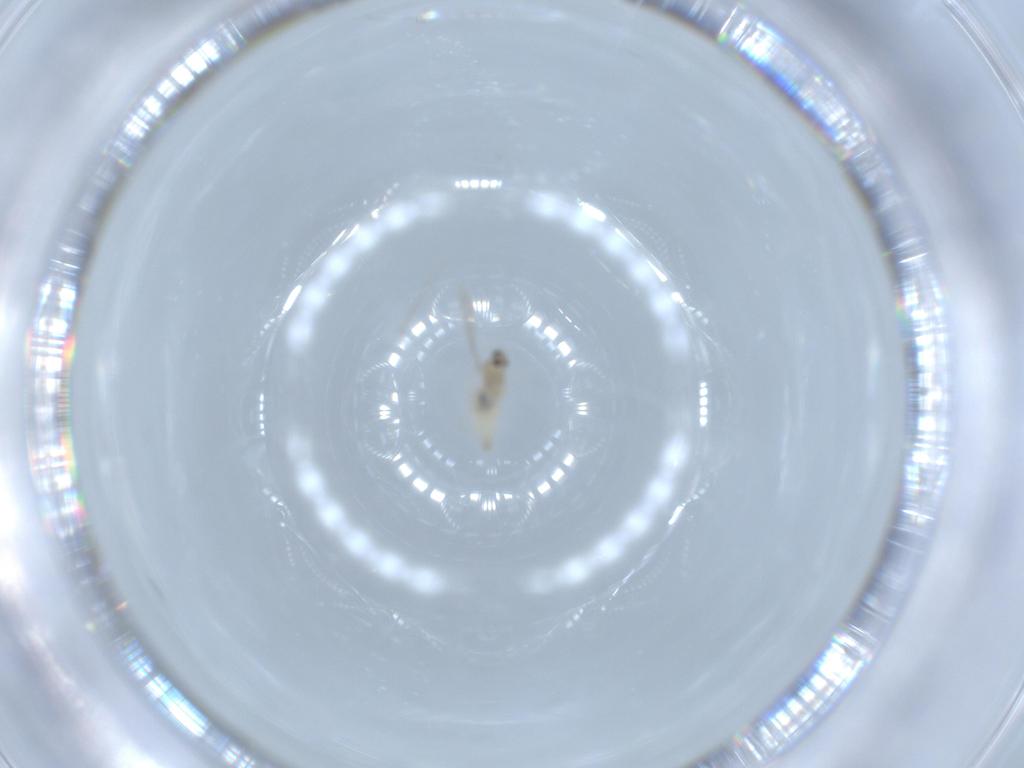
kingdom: Animalia
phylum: Arthropoda
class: Insecta
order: Diptera
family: Cecidomyiidae
